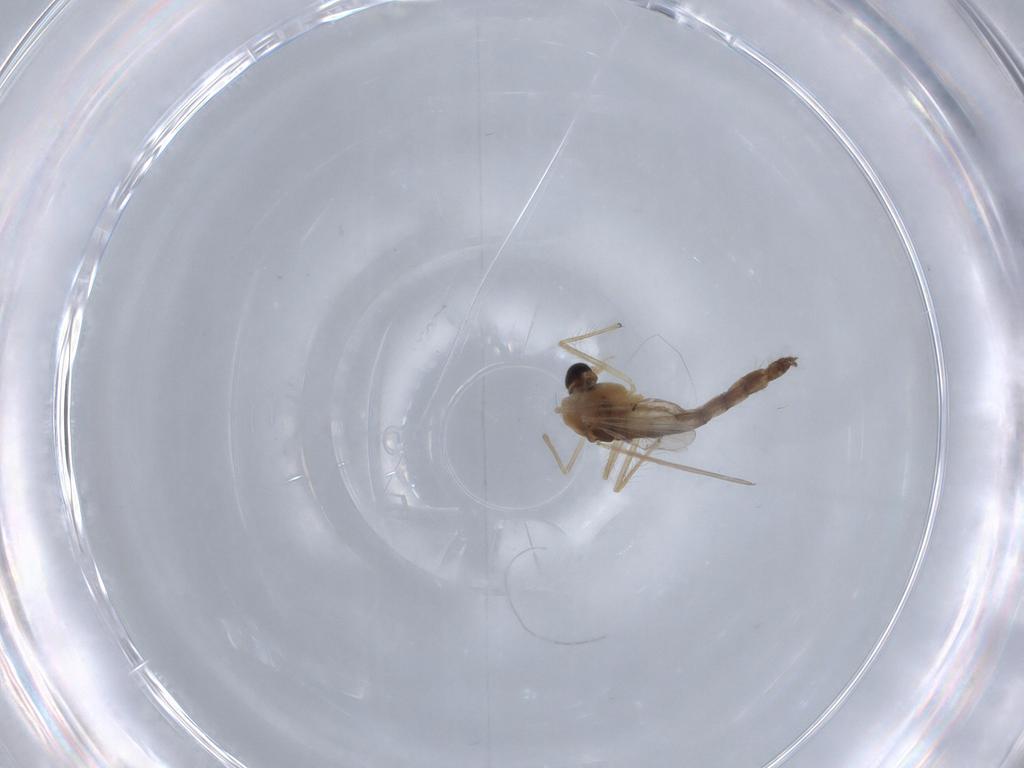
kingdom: Animalia
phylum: Arthropoda
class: Insecta
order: Diptera
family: Chironomidae
